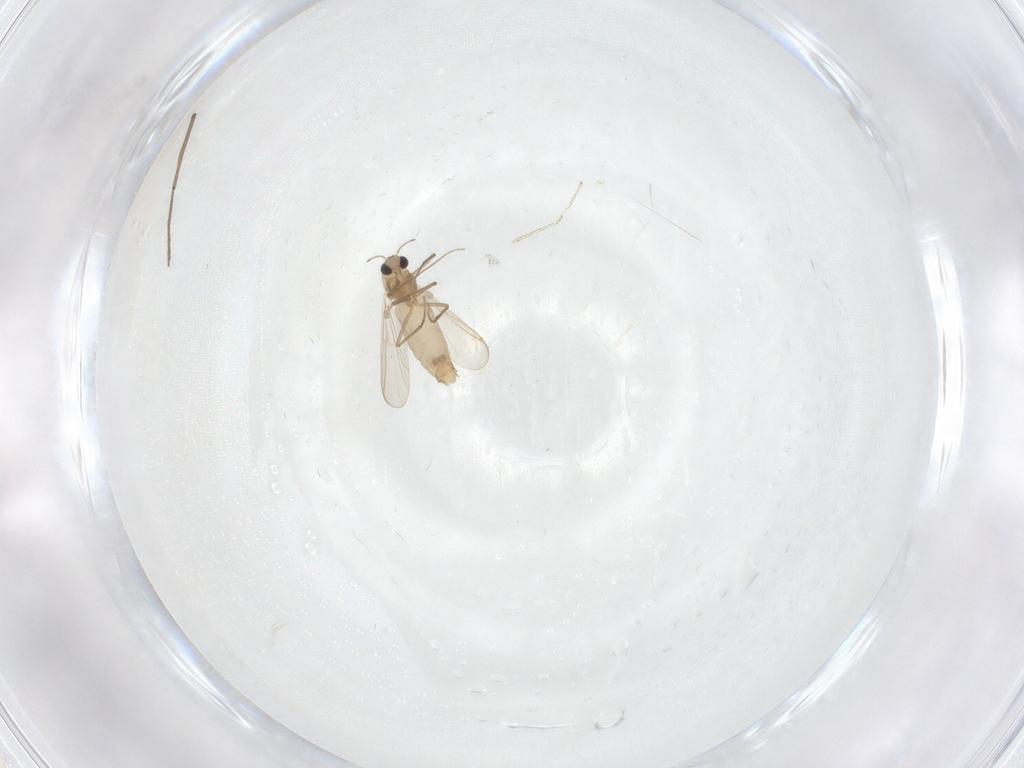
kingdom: Animalia
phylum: Arthropoda
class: Insecta
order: Diptera
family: Chironomidae
